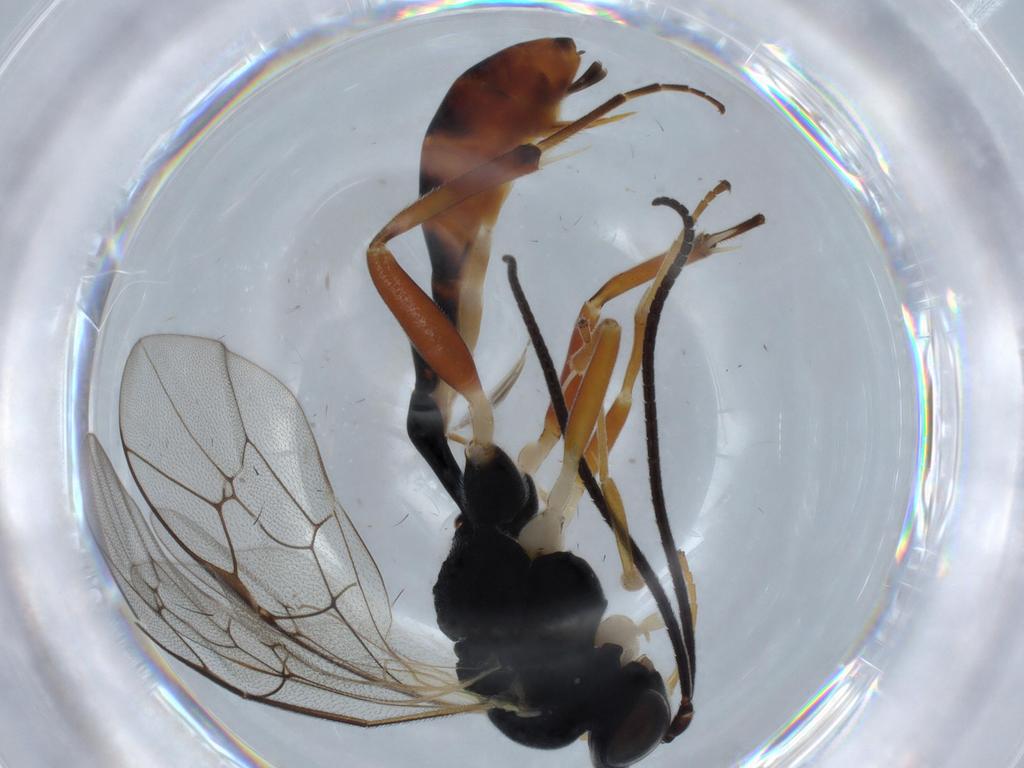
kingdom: Animalia
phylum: Arthropoda
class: Insecta
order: Hymenoptera
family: Ichneumonidae
